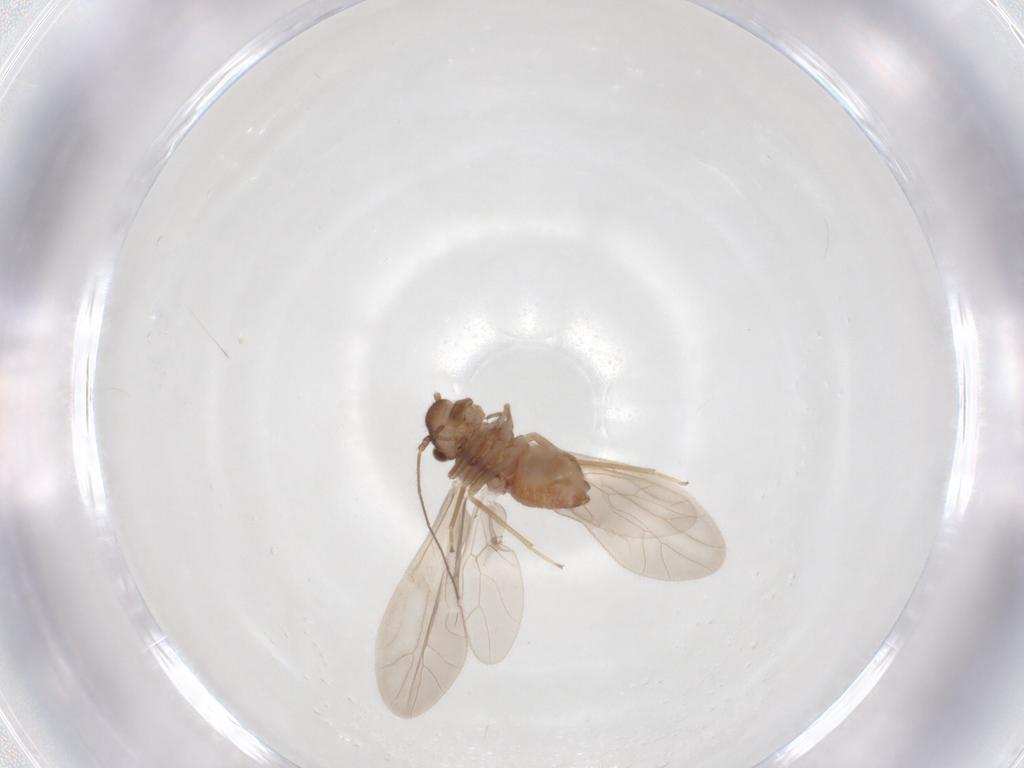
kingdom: Animalia
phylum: Arthropoda
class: Insecta
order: Psocodea
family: Caeciliusidae
